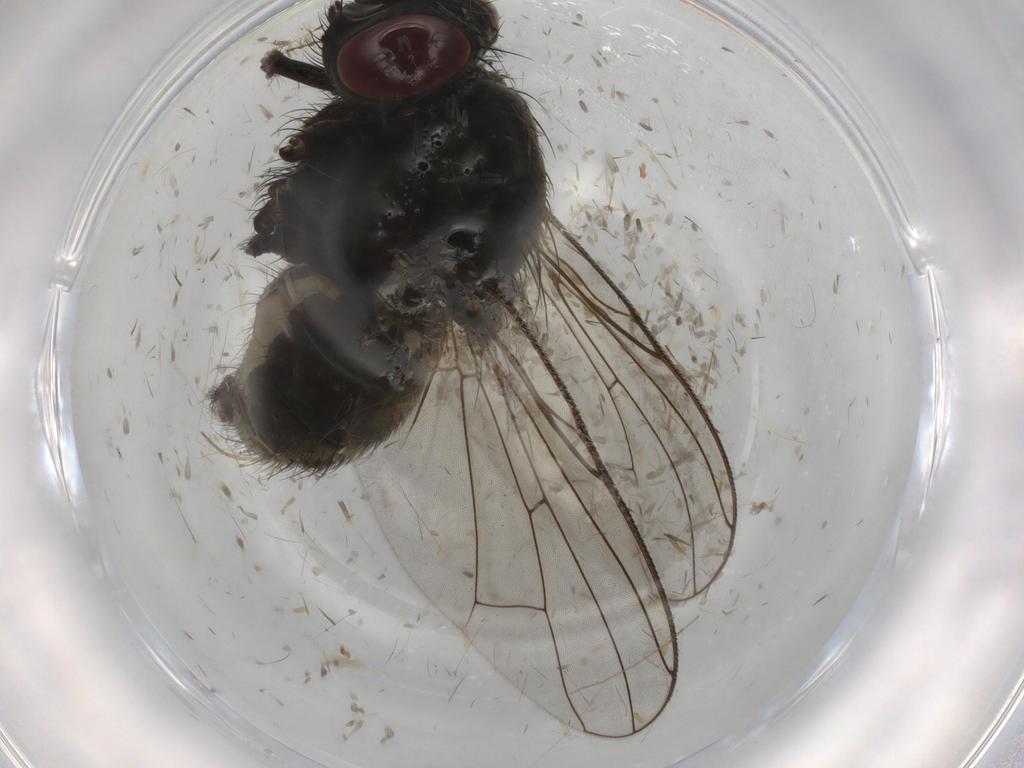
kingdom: Animalia
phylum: Arthropoda
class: Insecta
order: Diptera
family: Muscidae
